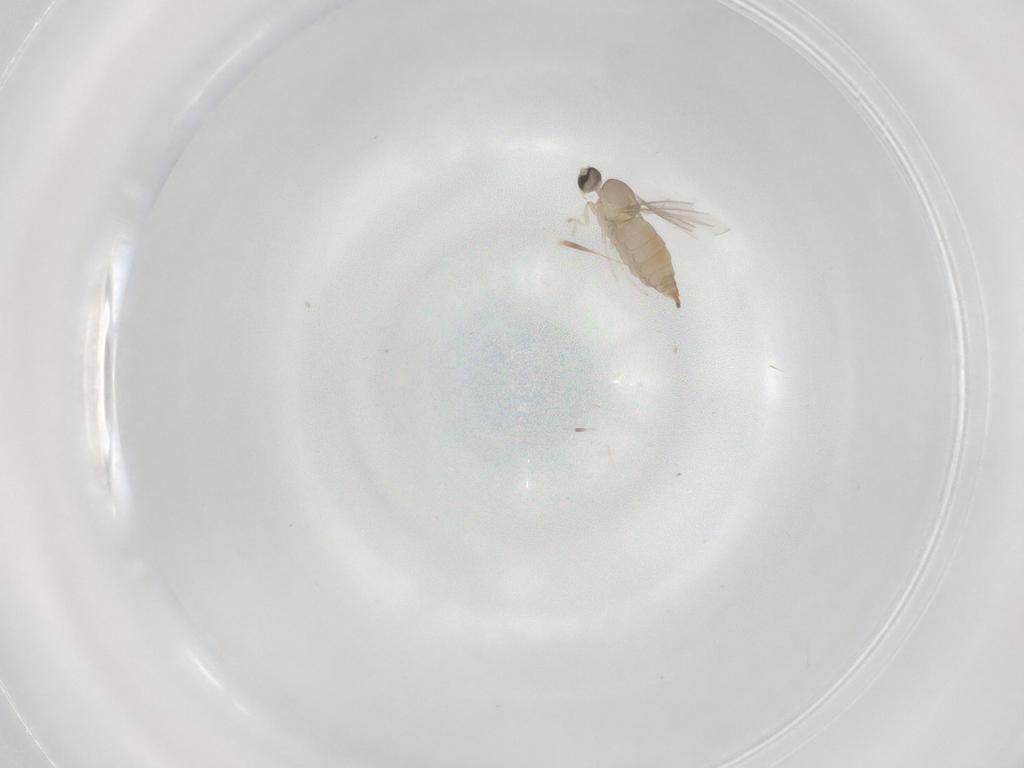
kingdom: Animalia
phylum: Arthropoda
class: Insecta
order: Diptera
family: Cecidomyiidae
